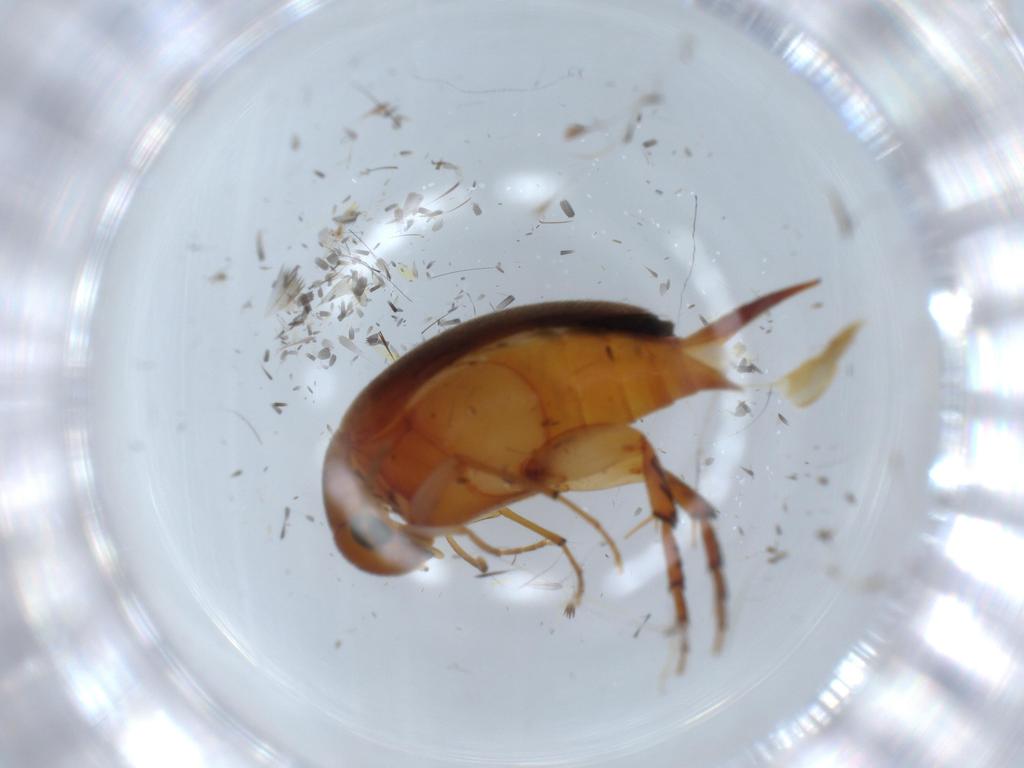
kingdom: Animalia
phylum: Arthropoda
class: Insecta
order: Coleoptera
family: Mordellidae
